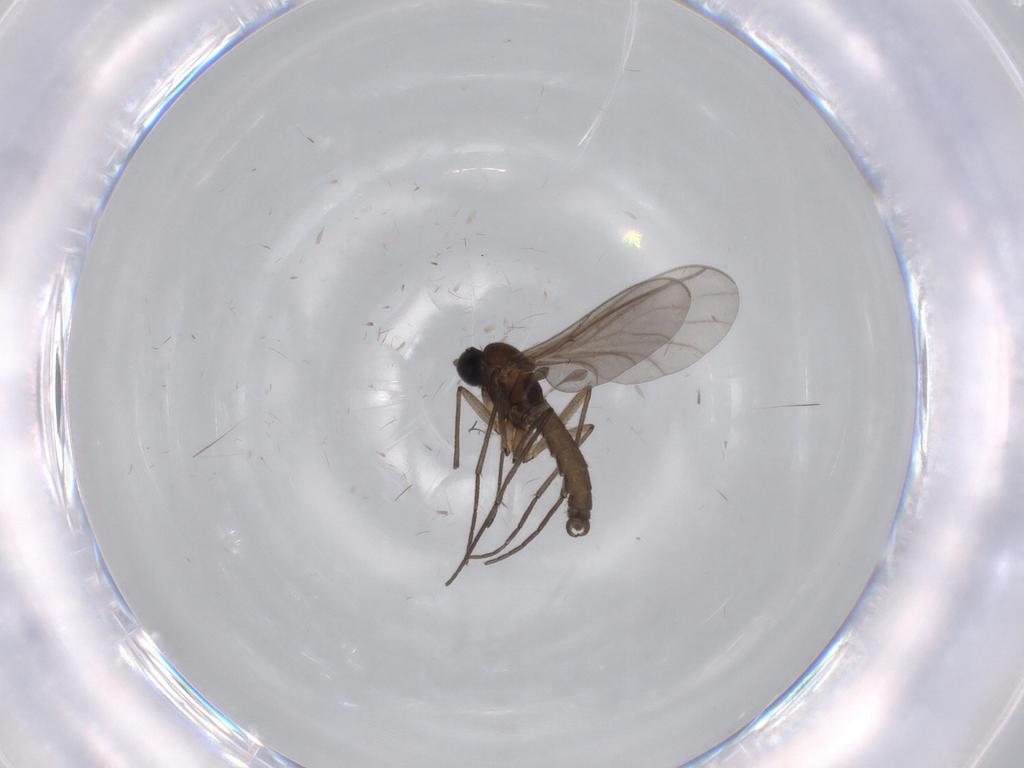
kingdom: Animalia
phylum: Arthropoda
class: Insecta
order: Diptera
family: Sciaridae
